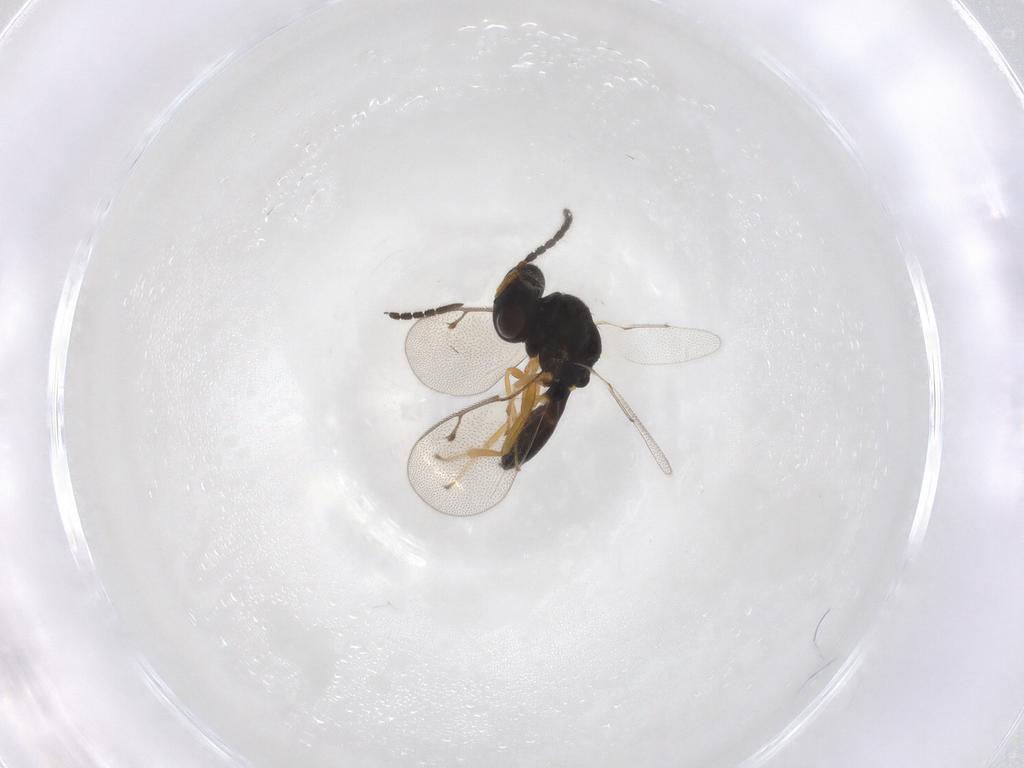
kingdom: Animalia
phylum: Arthropoda
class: Insecta
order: Hymenoptera
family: Pteromalidae
